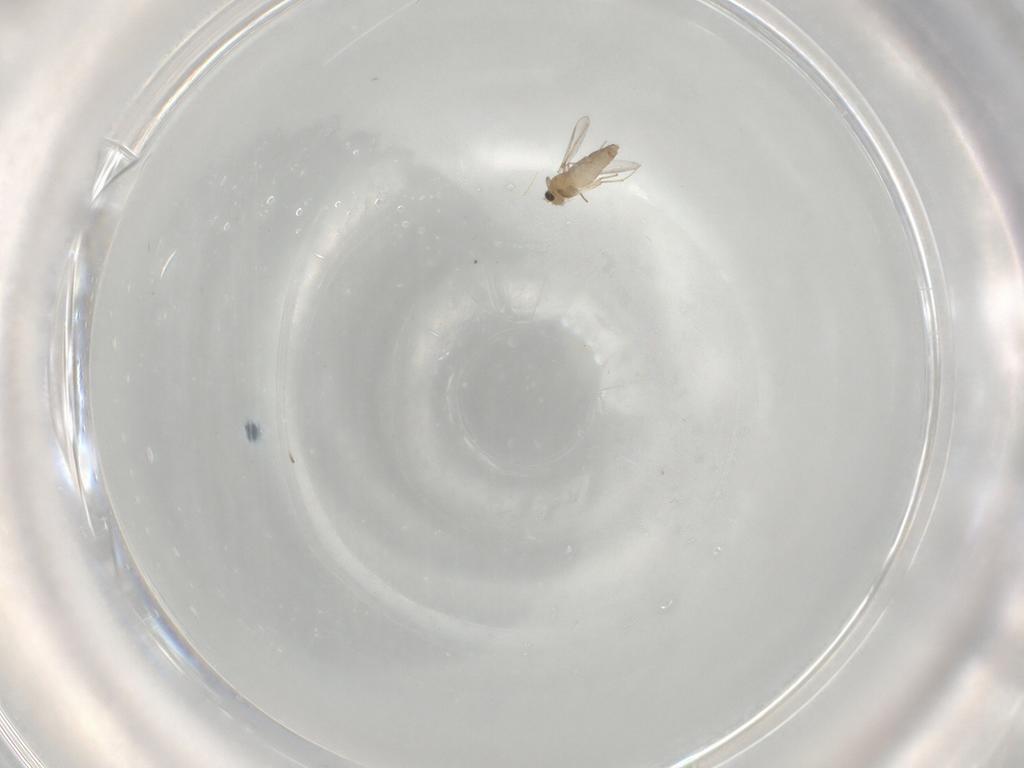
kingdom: Animalia
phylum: Arthropoda
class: Insecta
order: Diptera
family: Chironomidae
